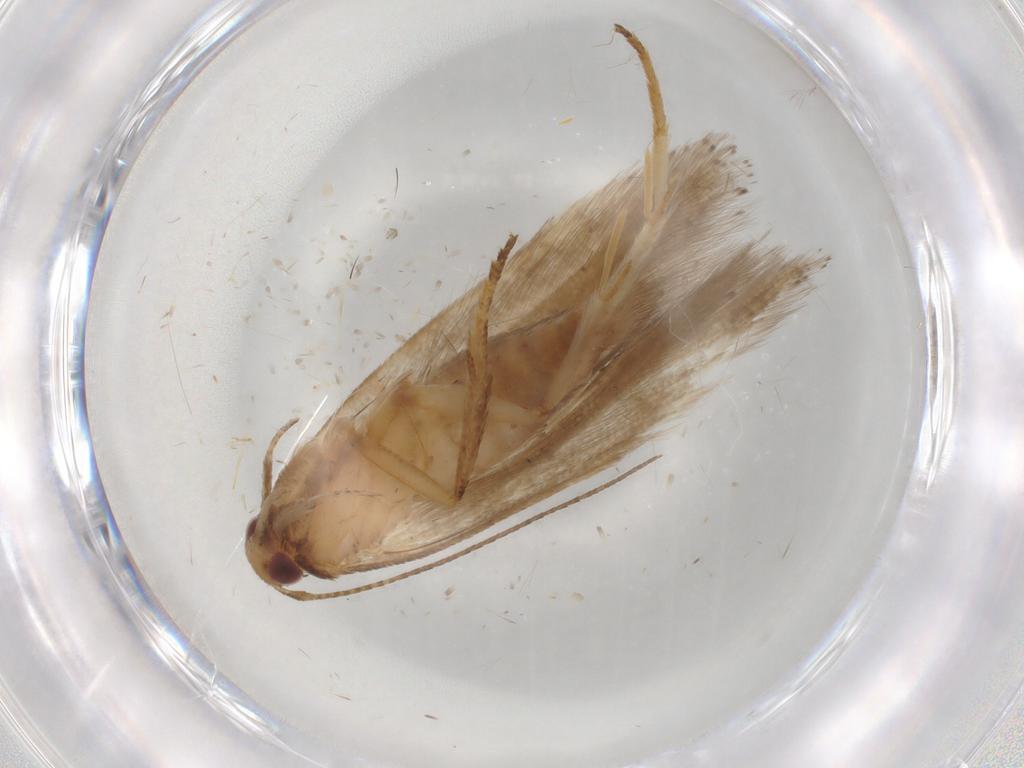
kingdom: Animalia
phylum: Arthropoda
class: Insecta
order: Lepidoptera
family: Gelechiidae
